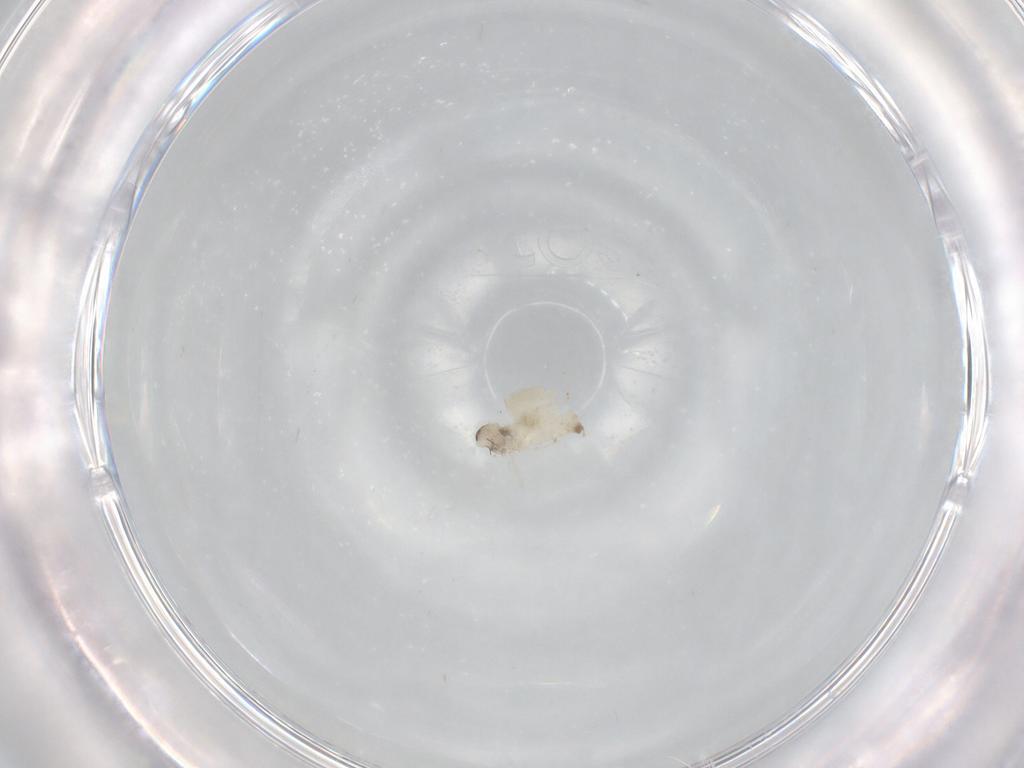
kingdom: Animalia
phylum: Arthropoda
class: Insecta
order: Diptera
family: Cecidomyiidae
